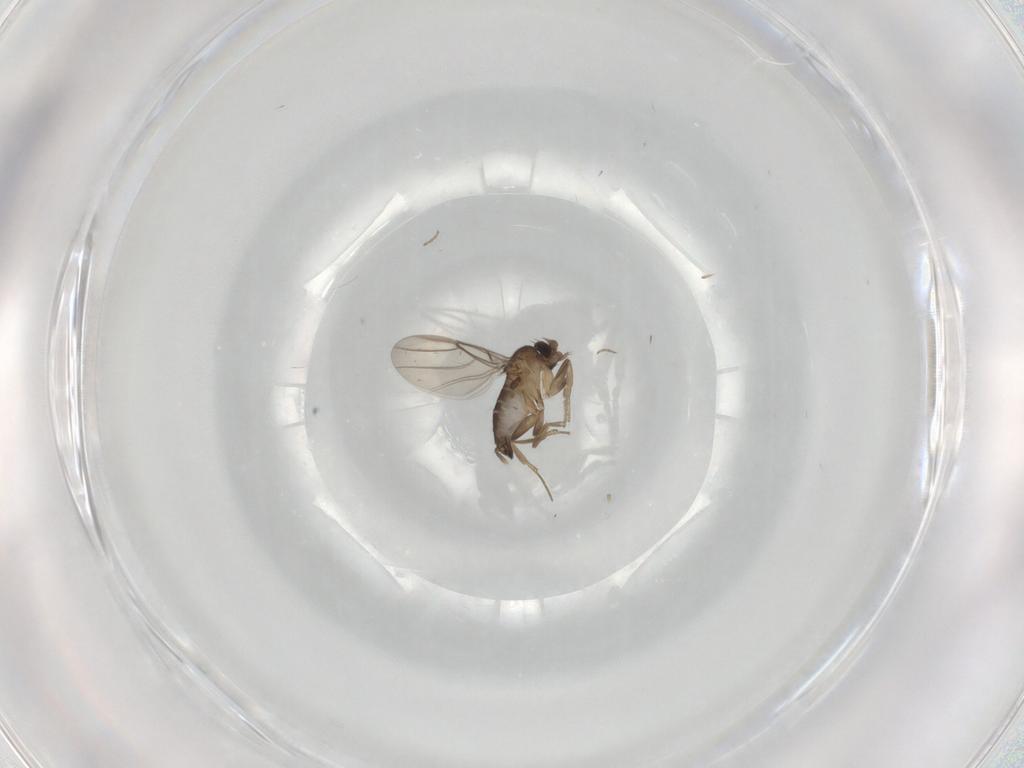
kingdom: Animalia
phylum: Arthropoda
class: Insecta
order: Diptera
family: Phoridae
